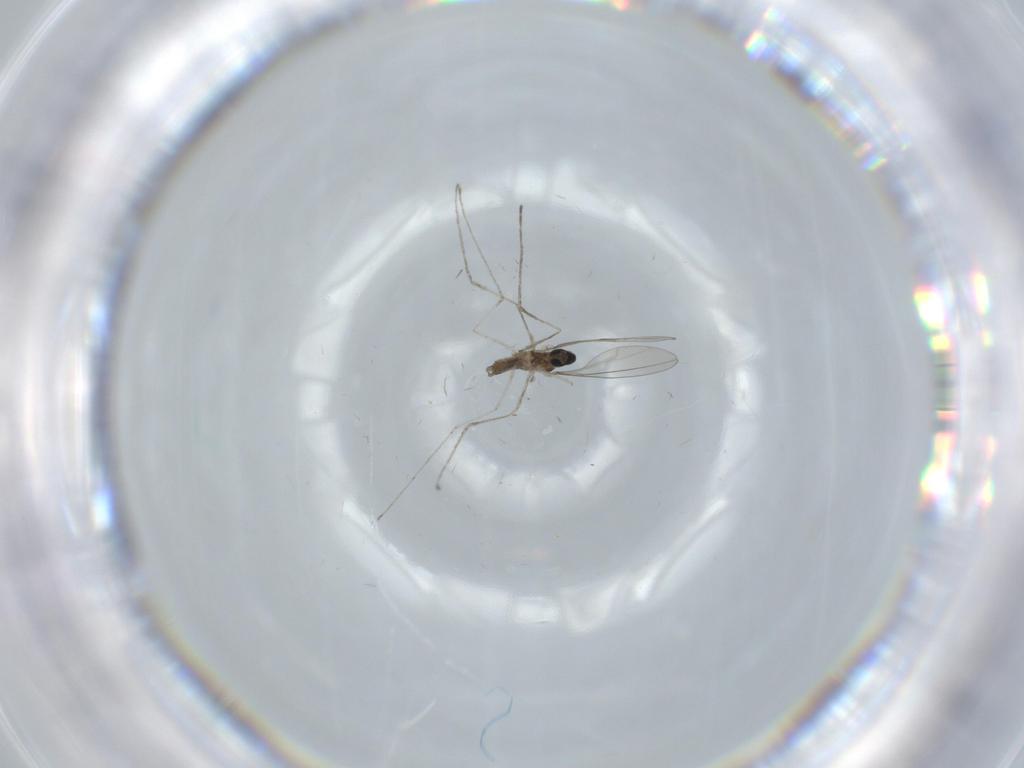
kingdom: Animalia
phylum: Arthropoda
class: Insecta
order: Diptera
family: Cecidomyiidae
